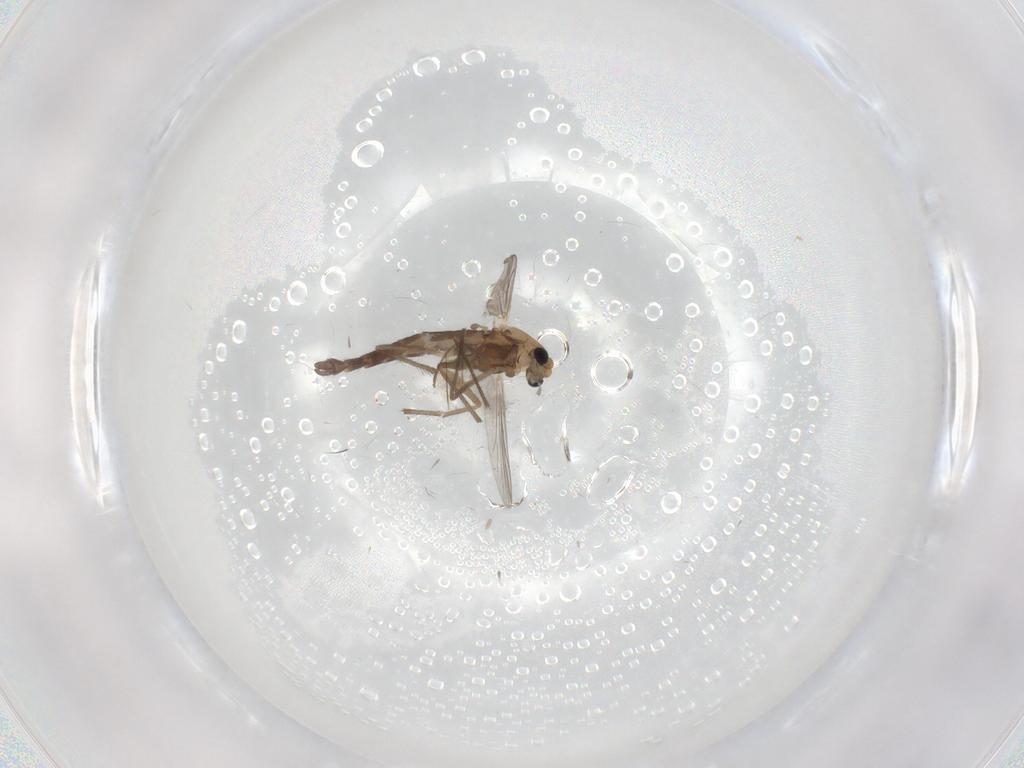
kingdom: Animalia
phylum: Arthropoda
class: Insecta
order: Diptera
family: Chironomidae
